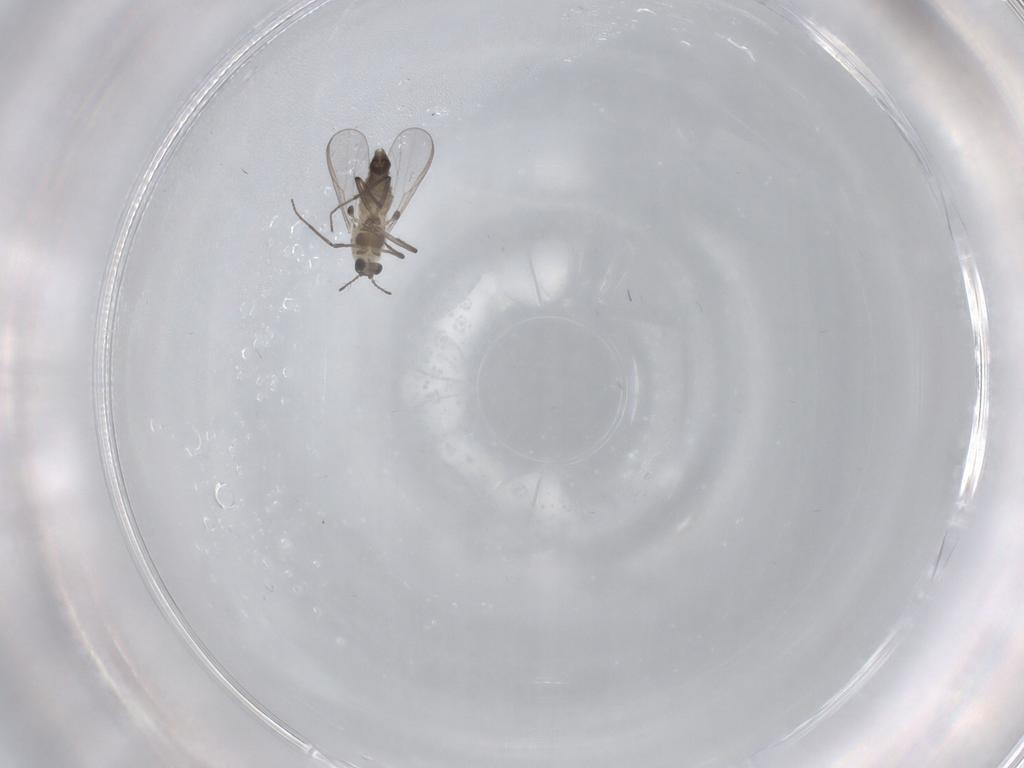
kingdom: Animalia
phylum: Arthropoda
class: Insecta
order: Diptera
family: Chironomidae
